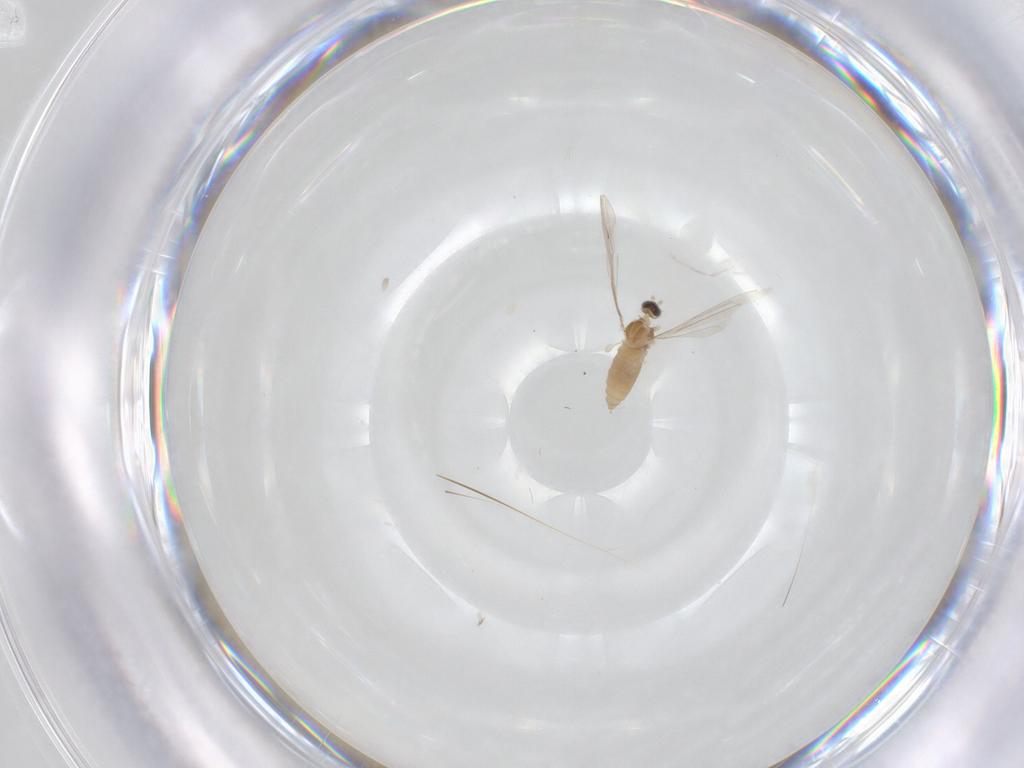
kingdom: Animalia
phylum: Arthropoda
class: Insecta
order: Diptera
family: Cecidomyiidae
